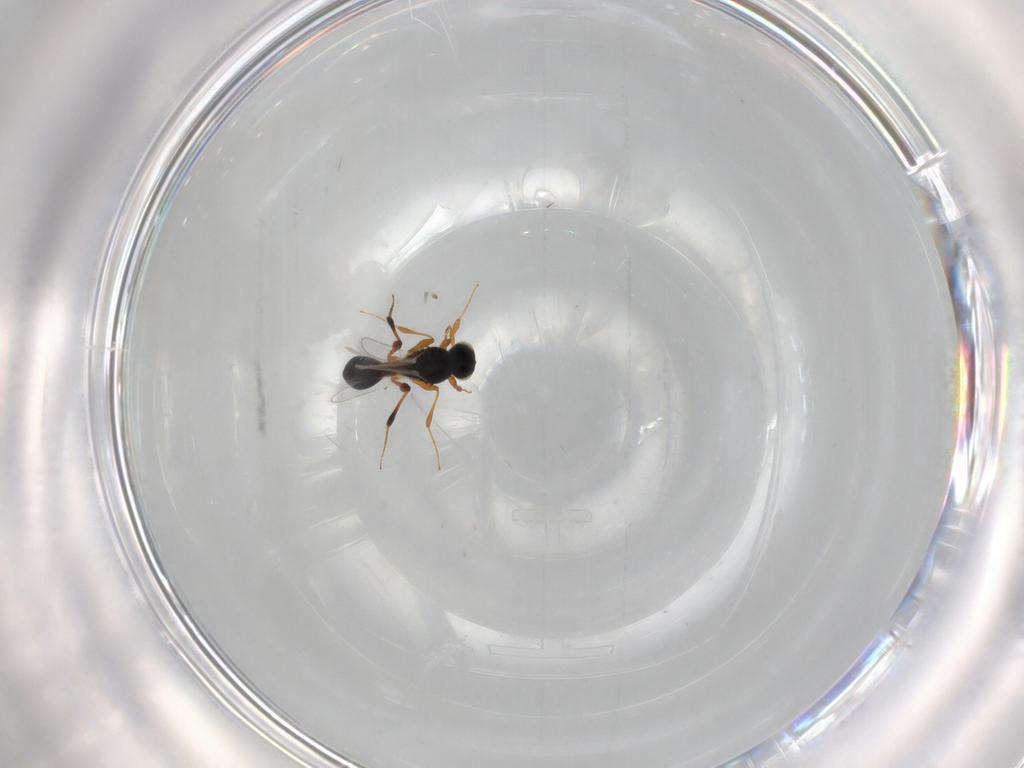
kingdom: Animalia
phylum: Arthropoda
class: Insecta
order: Hymenoptera
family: Platygastridae
